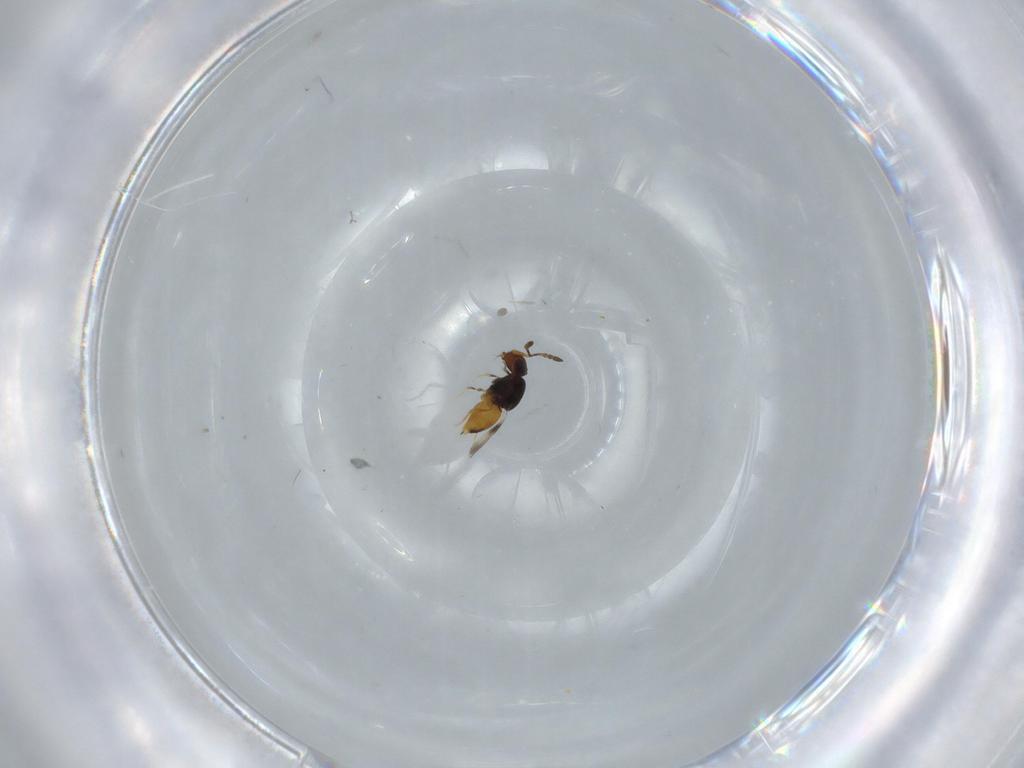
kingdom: Animalia
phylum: Arthropoda
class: Insecta
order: Diptera
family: Cecidomyiidae
